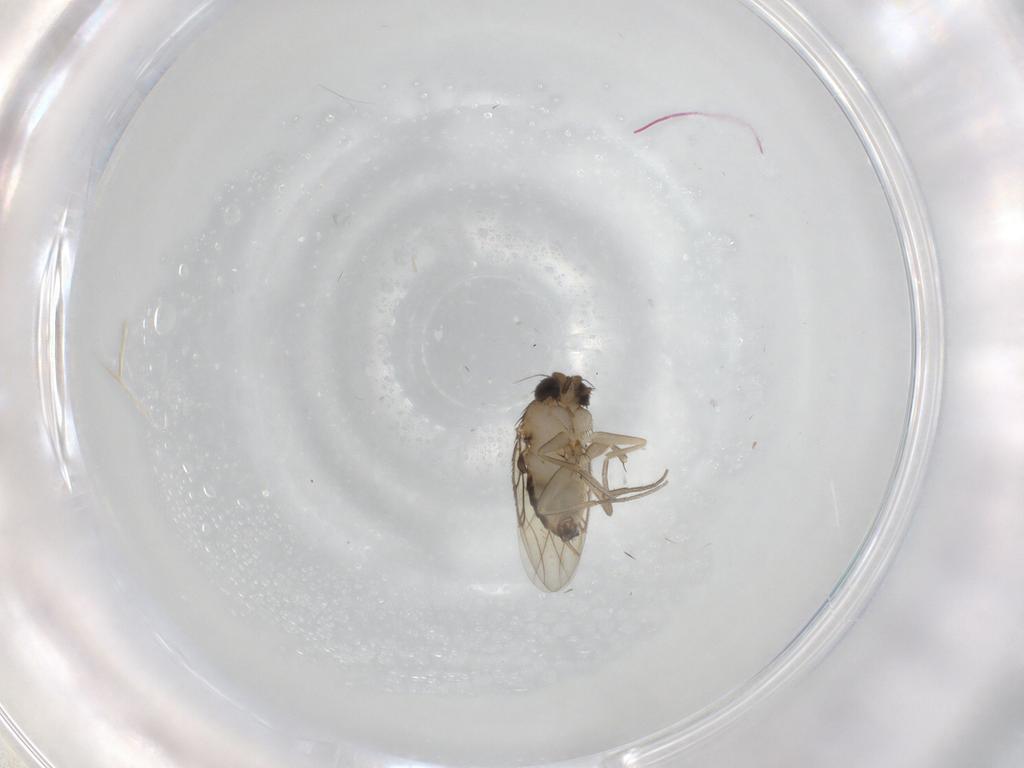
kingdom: Animalia
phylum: Arthropoda
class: Insecta
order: Diptera
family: Phoridae
